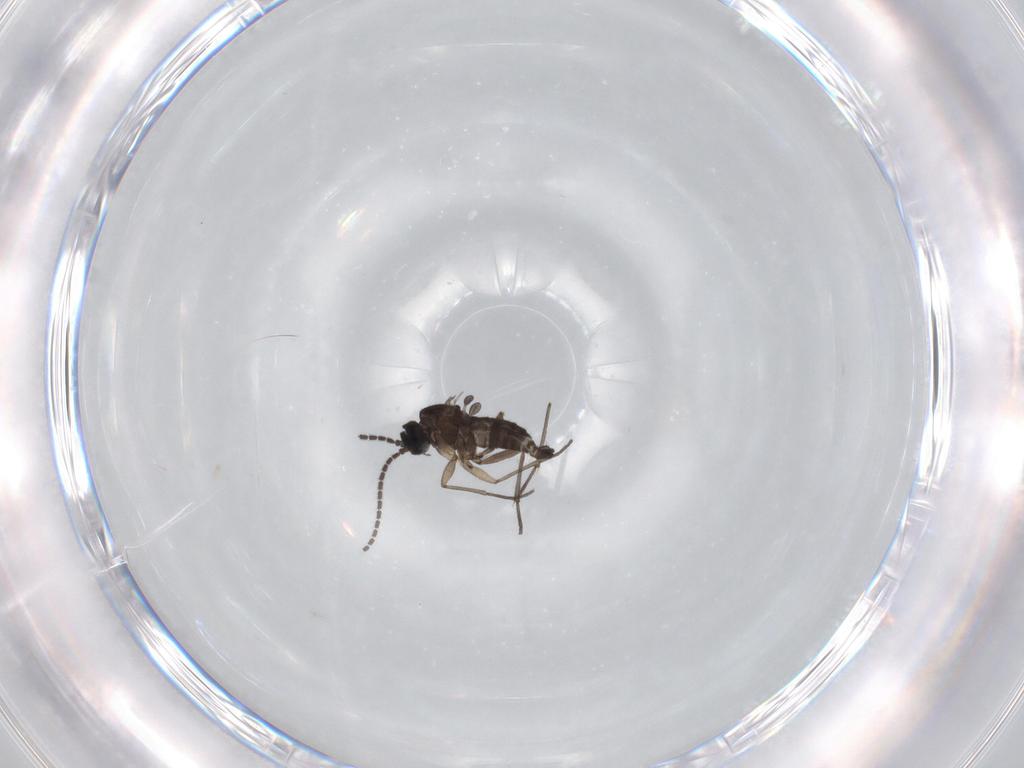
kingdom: Animalia
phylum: Arthropoda
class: Insecta
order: Diptera
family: Sciaridae
